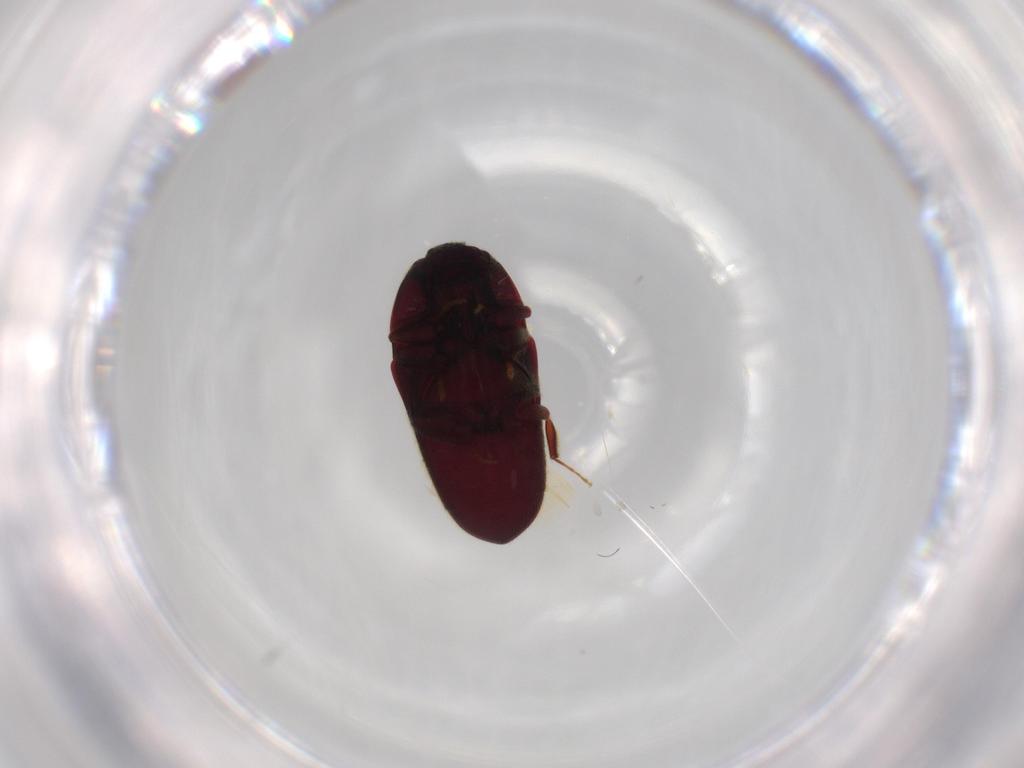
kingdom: Animalia
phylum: Arthropoda
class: Insecta
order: Coleoptera
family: Throscidae
